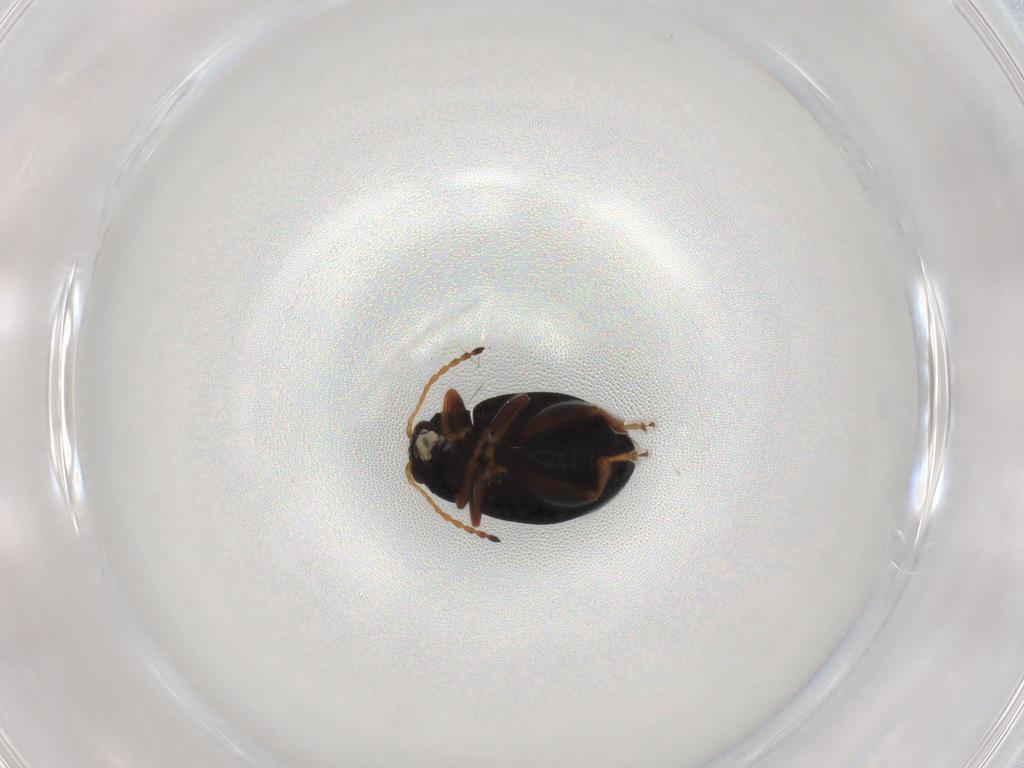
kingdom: Animalia
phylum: Arthropoda
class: Insecta
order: Coleoptera
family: Chrysomelidae
